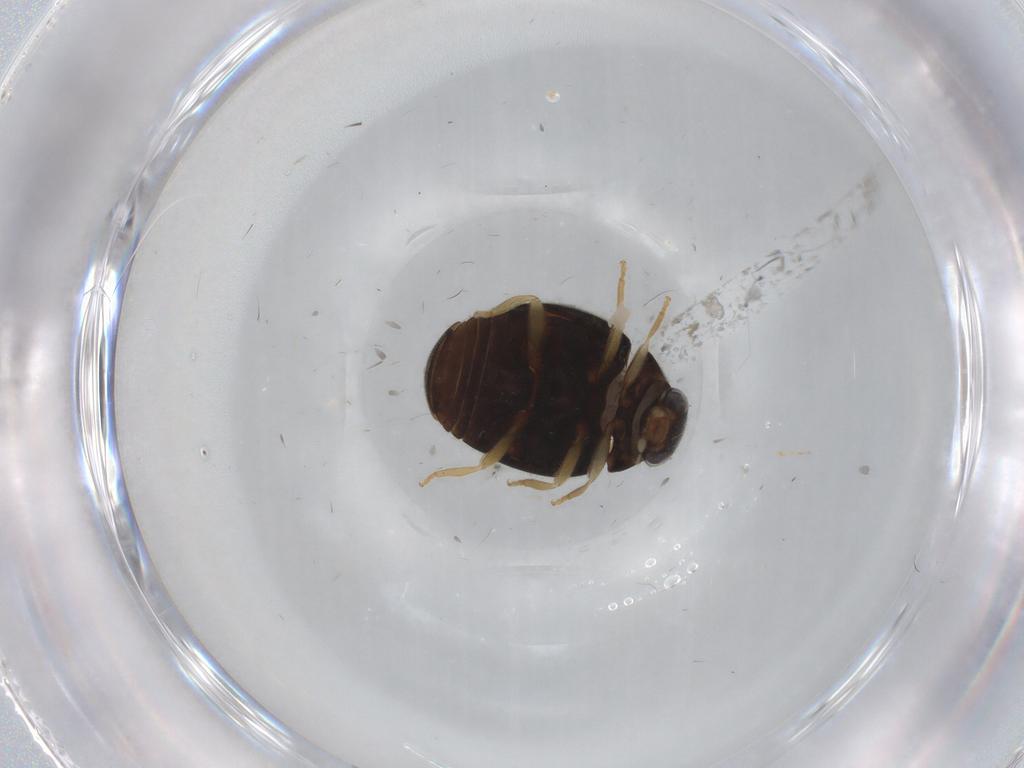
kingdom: Animalia
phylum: Arthropoda
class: Insecta
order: Coleoptera
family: Coccinellidae
